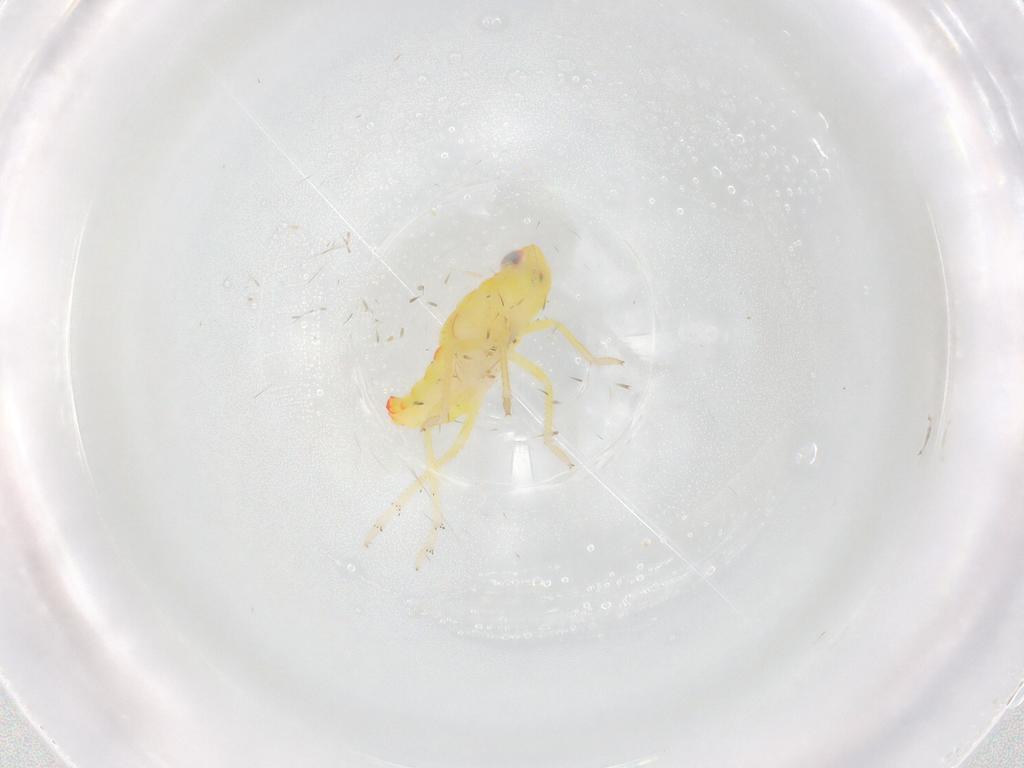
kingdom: Animalia
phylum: Arthropoda
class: Insecta
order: Hemiptera
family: Tropiduchidae
